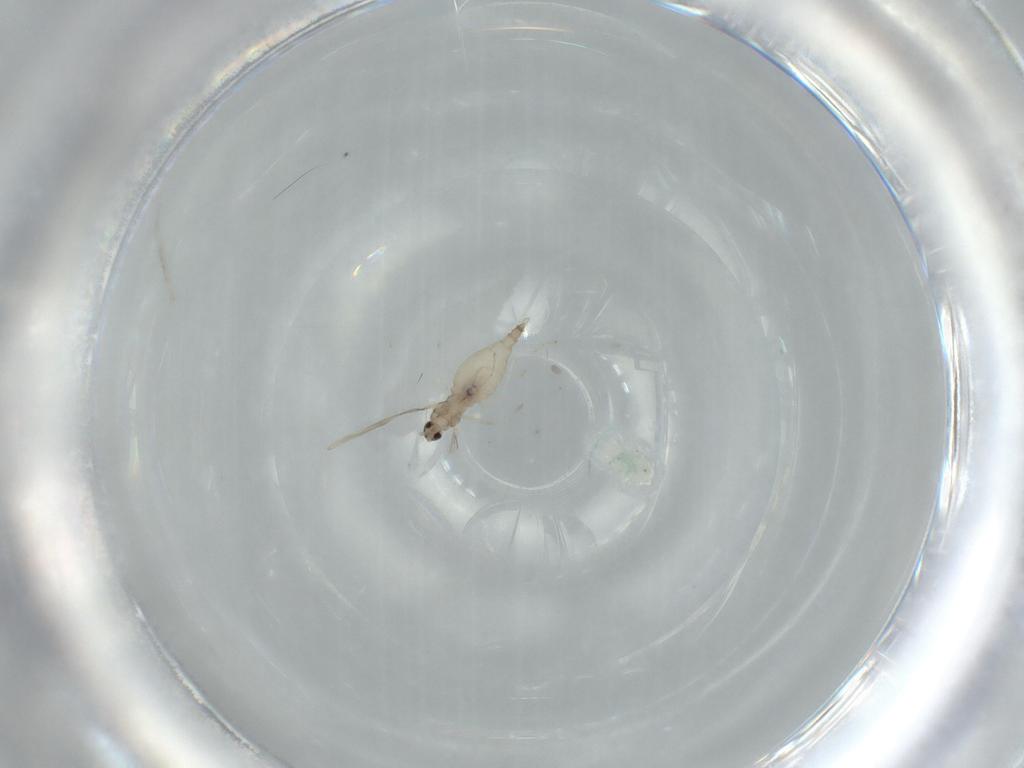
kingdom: Animalia
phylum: Arthropoda
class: Insecta
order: Diptera
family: Cecidomyiidae
